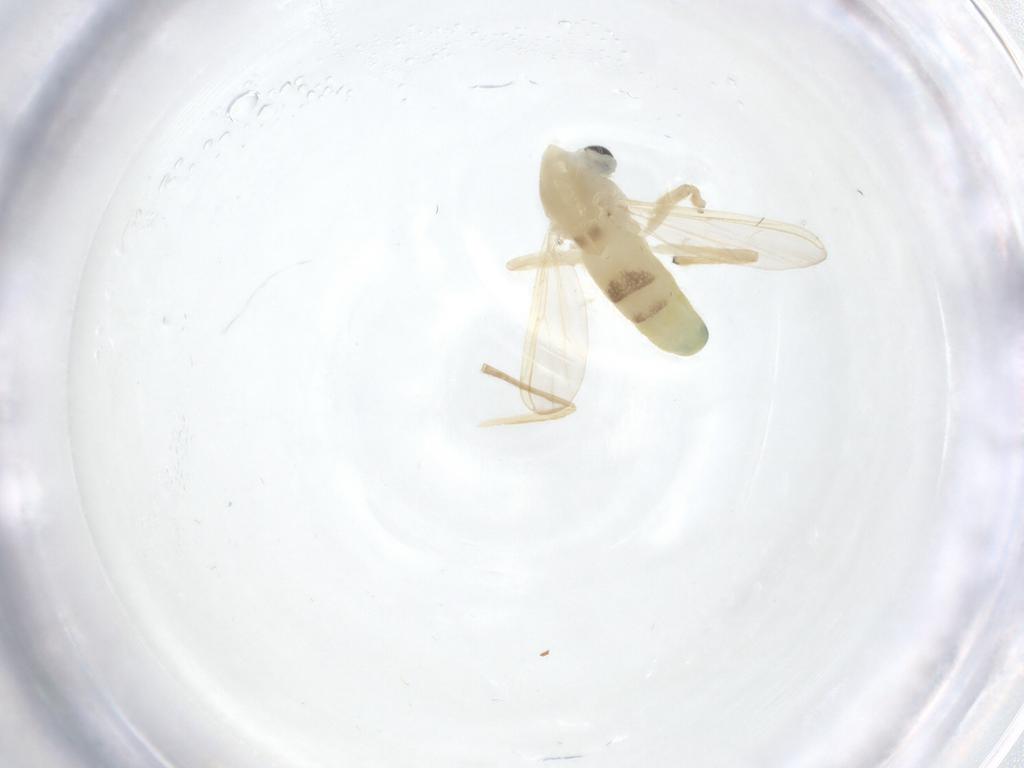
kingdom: Animalia
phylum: Arthropoda
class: Insecta
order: Diptera
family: Chironomidae
